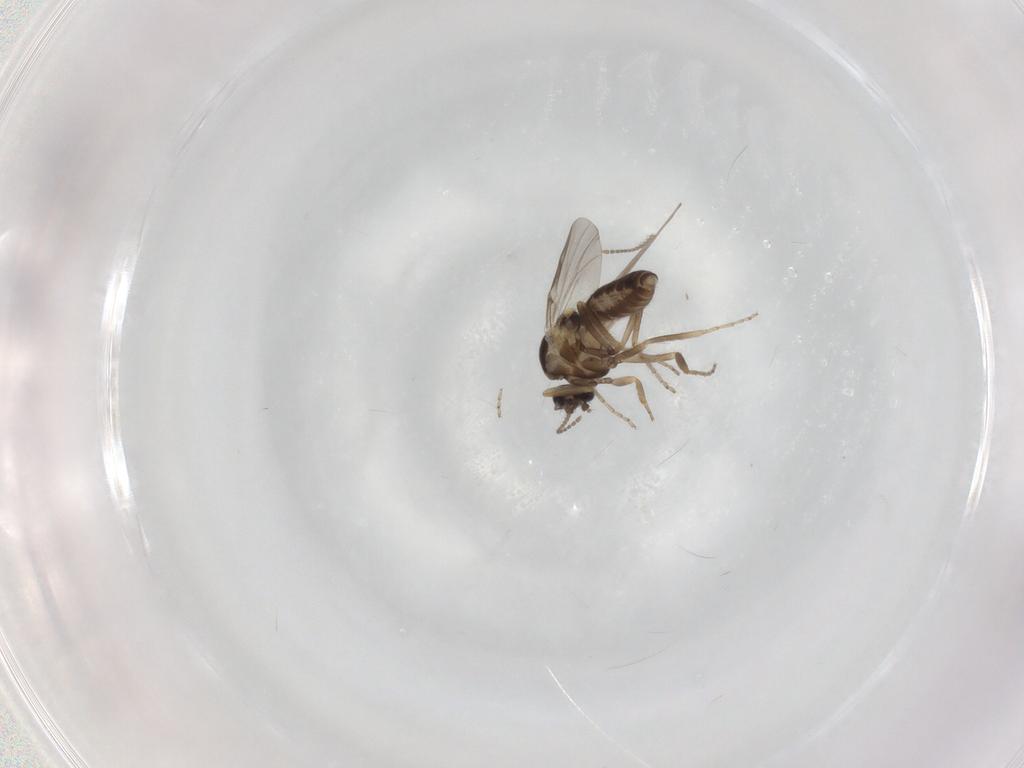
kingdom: Animalia
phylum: Arthropoda
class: Insecta
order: Diptera
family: Ceratopogonidae
